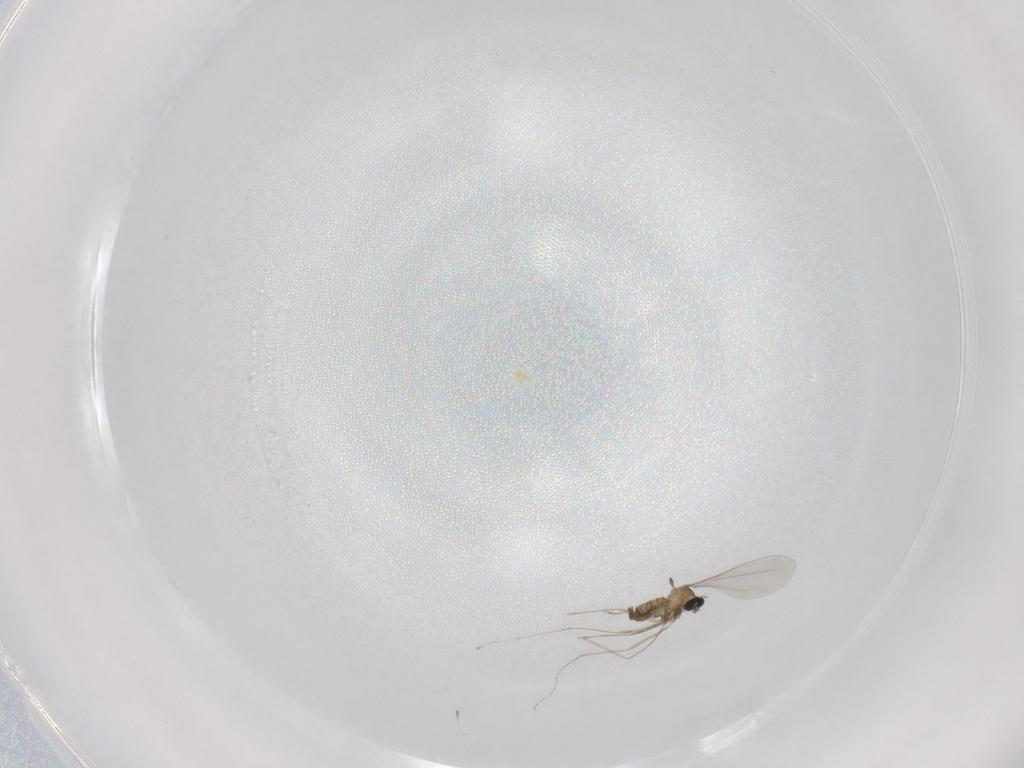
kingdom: Animalia
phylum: Arthropoda
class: Insecta
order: Diptera
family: Cecidomyiidae
